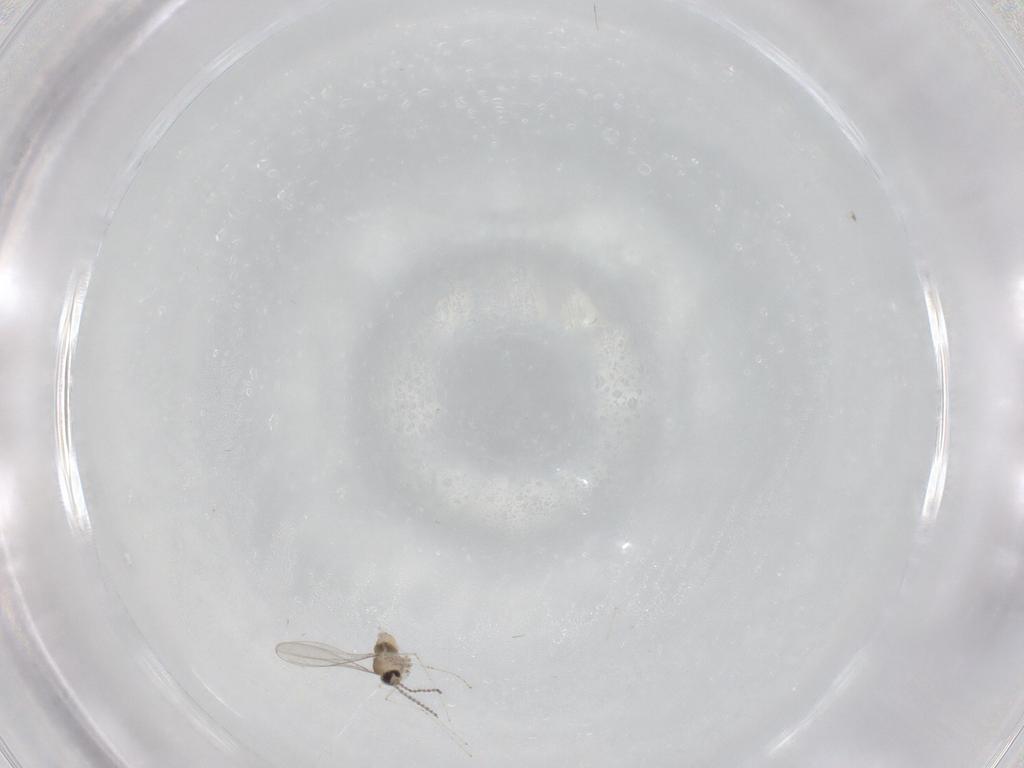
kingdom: Animalia
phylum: Arthropoda
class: Insecta
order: Diptera
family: Cecidomyiidae
